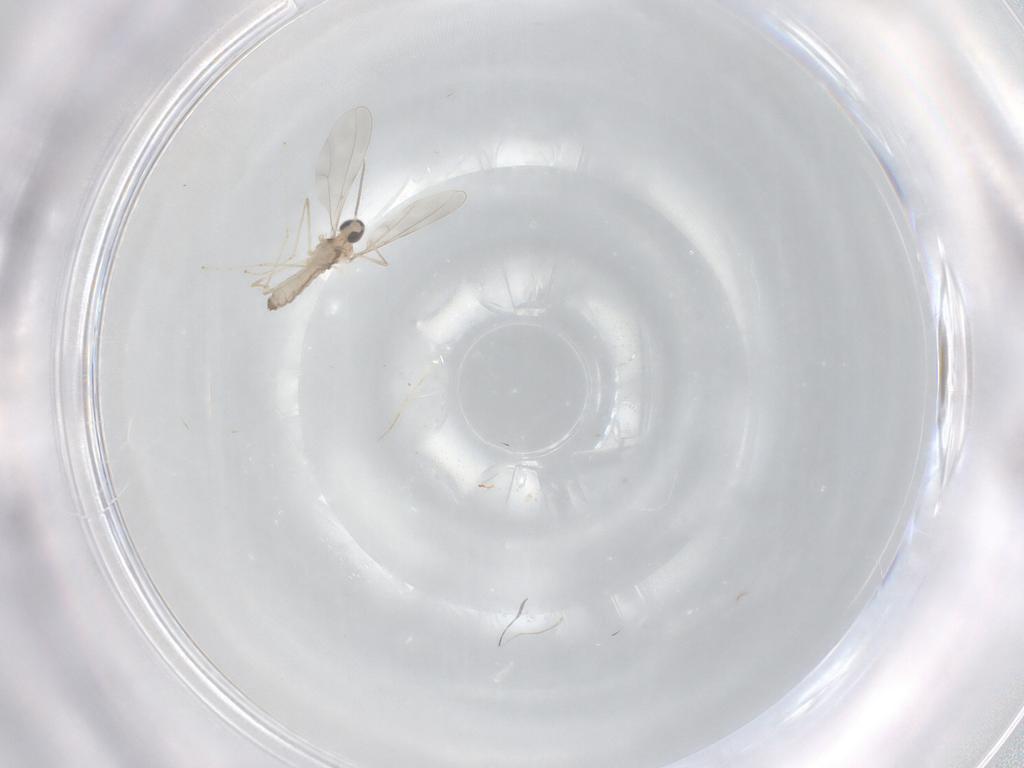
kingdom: Animalia
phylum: Arthropoda
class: Insecta
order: Diptera
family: Cecidomyiidae
